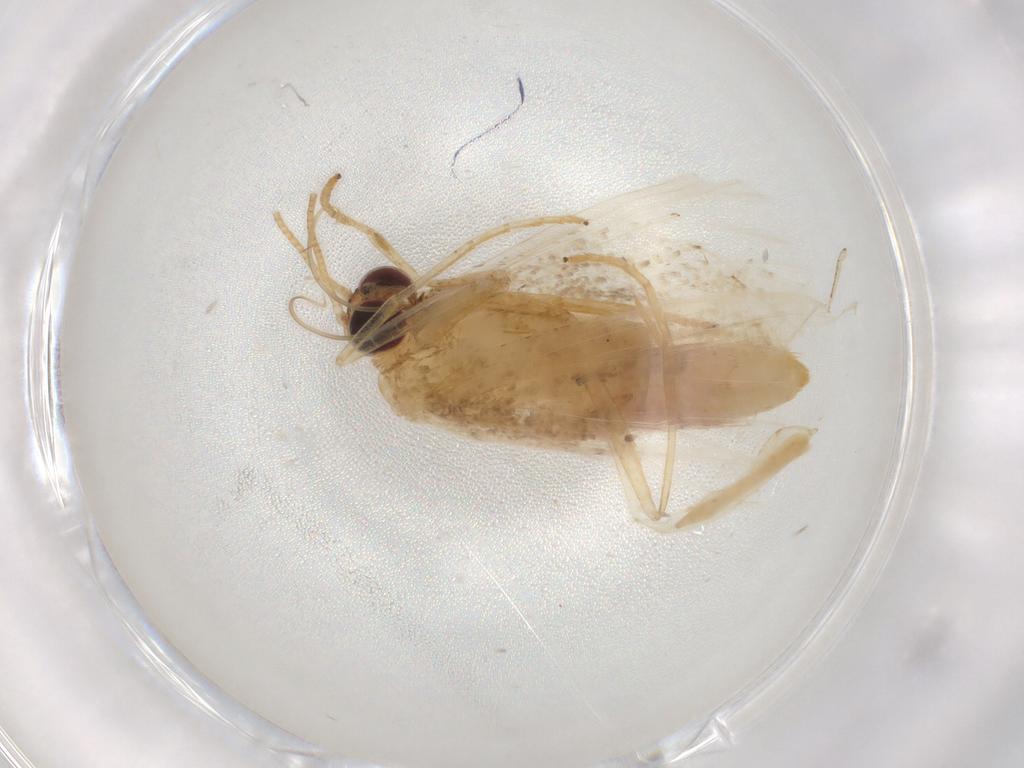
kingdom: Animalia
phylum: Arthropoda
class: Insecta
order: Lepidoptera
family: Geometridae
